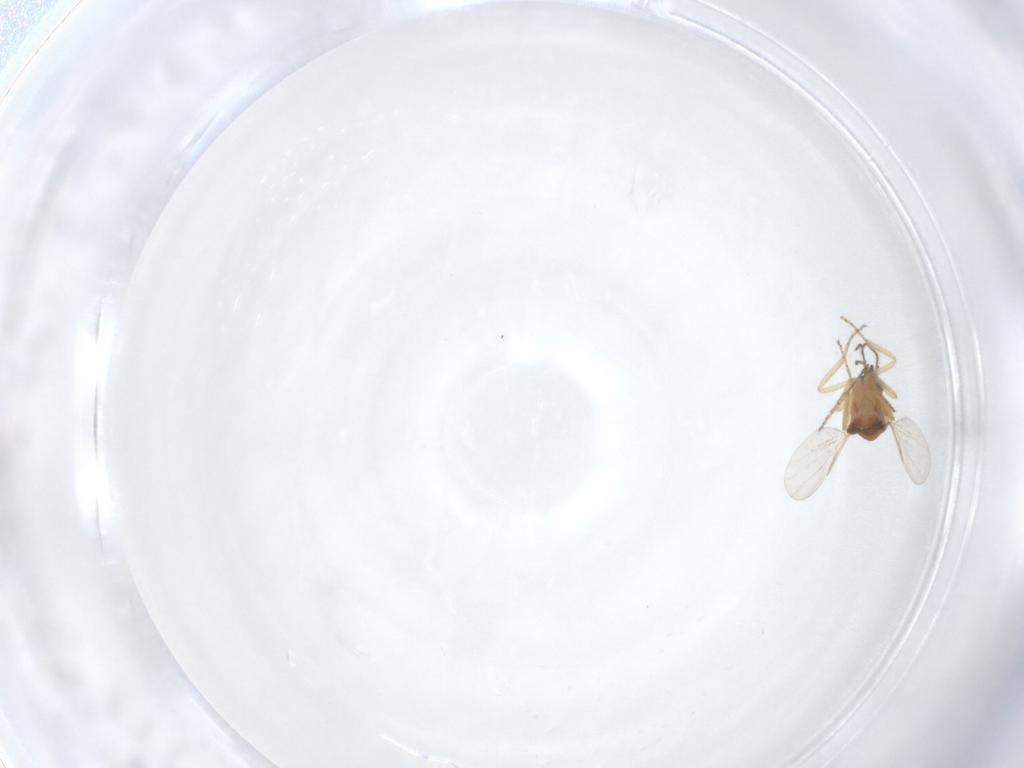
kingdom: Animalia
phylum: Arthropoda
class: Insecta
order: Diptera
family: Ceratopogonidae
